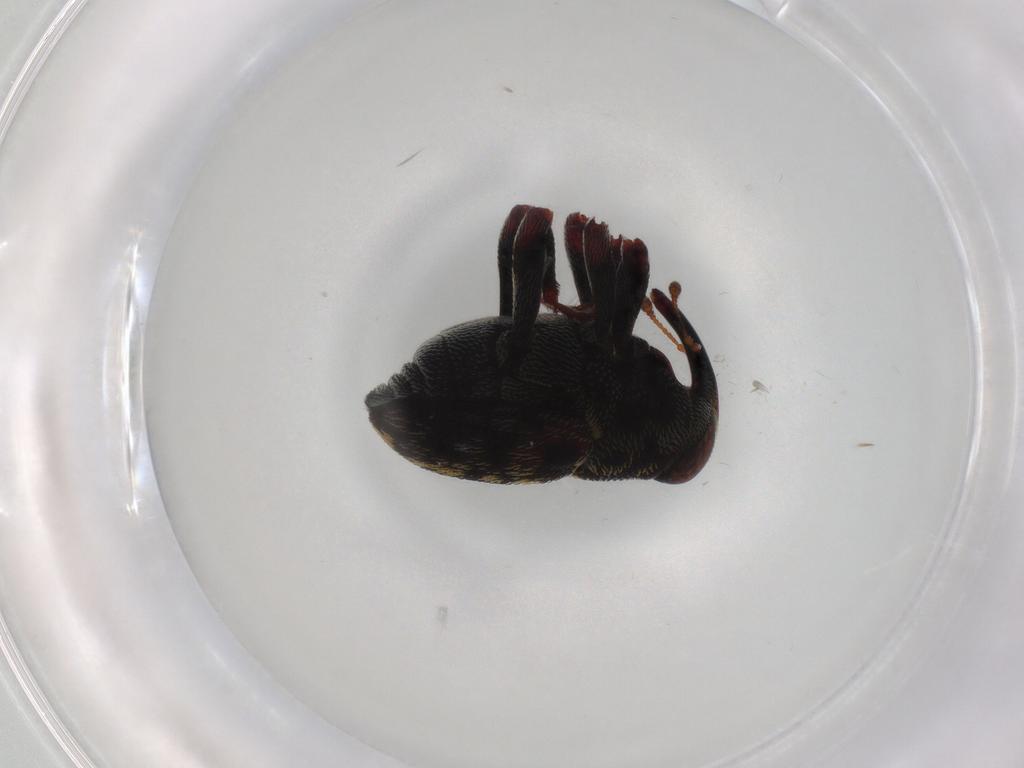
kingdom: Animalia
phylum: Arthropoda
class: Insecta
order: Coleoptera
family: Curculionidae
